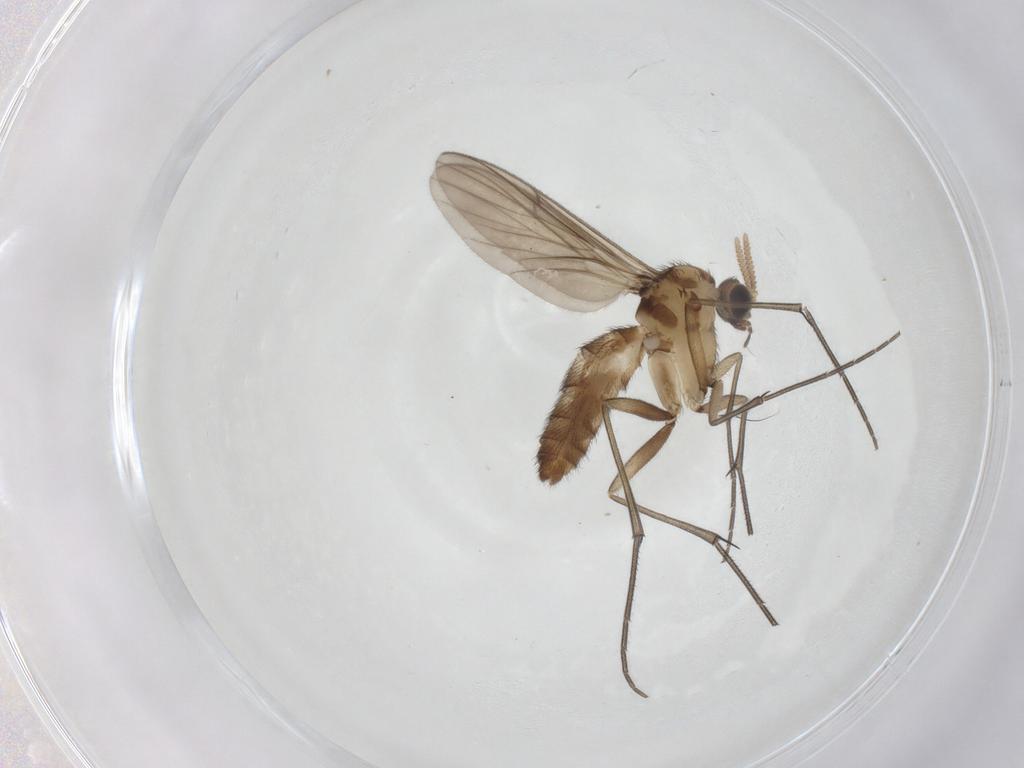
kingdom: Animalia
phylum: Arthropoda
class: Insecta
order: Diptera
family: Keroplatidae
